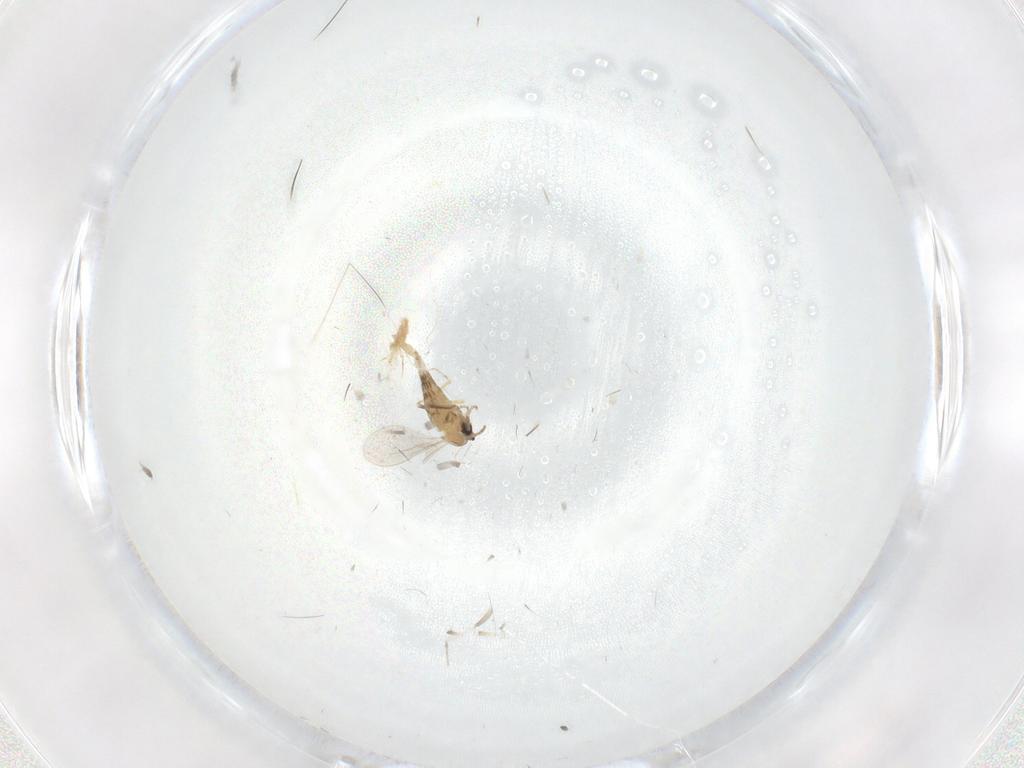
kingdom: Animalia
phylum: Arthropoda
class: Insecta
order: Diptera
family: Cecidomyiidae
